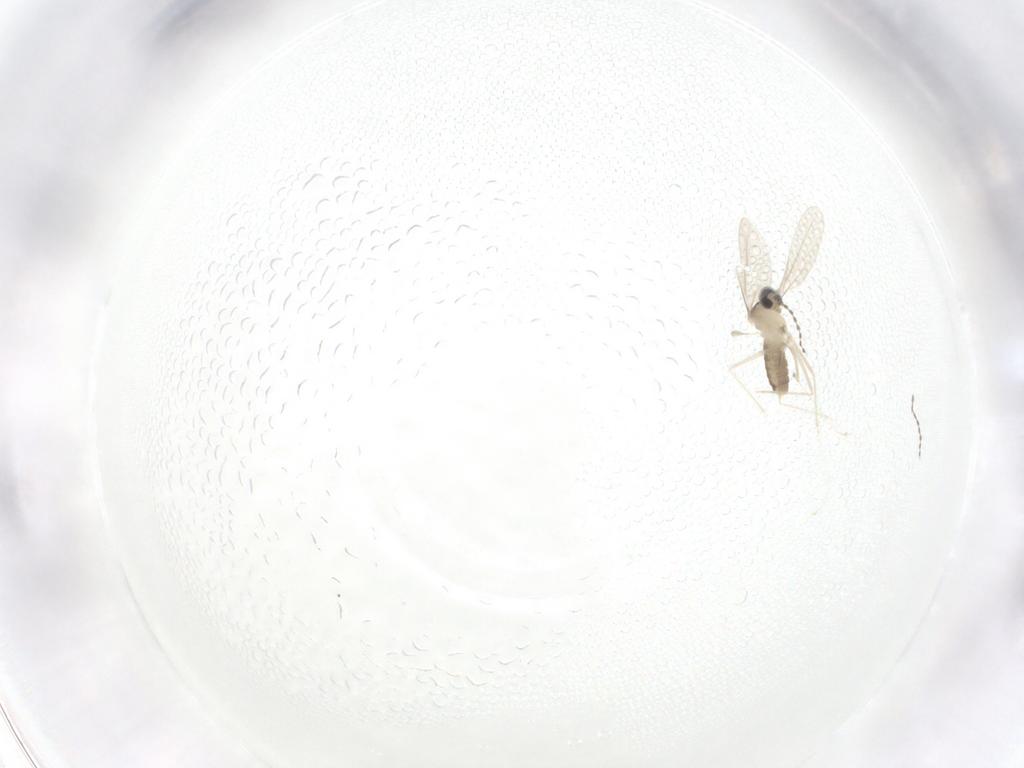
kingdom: Animalia
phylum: Arthropoda
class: Insecta
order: Diptera
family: Cecidomyiidae
